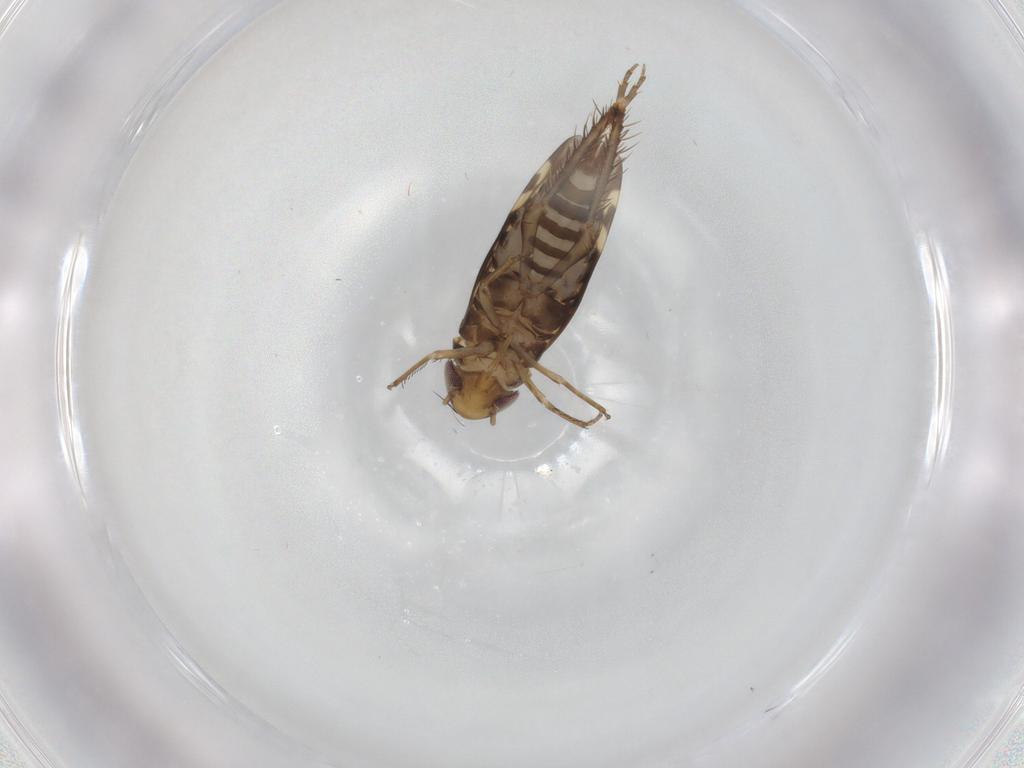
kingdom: Animalia
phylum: Arthropoda
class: Insecta
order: Hemiptera
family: Cicadellidae
